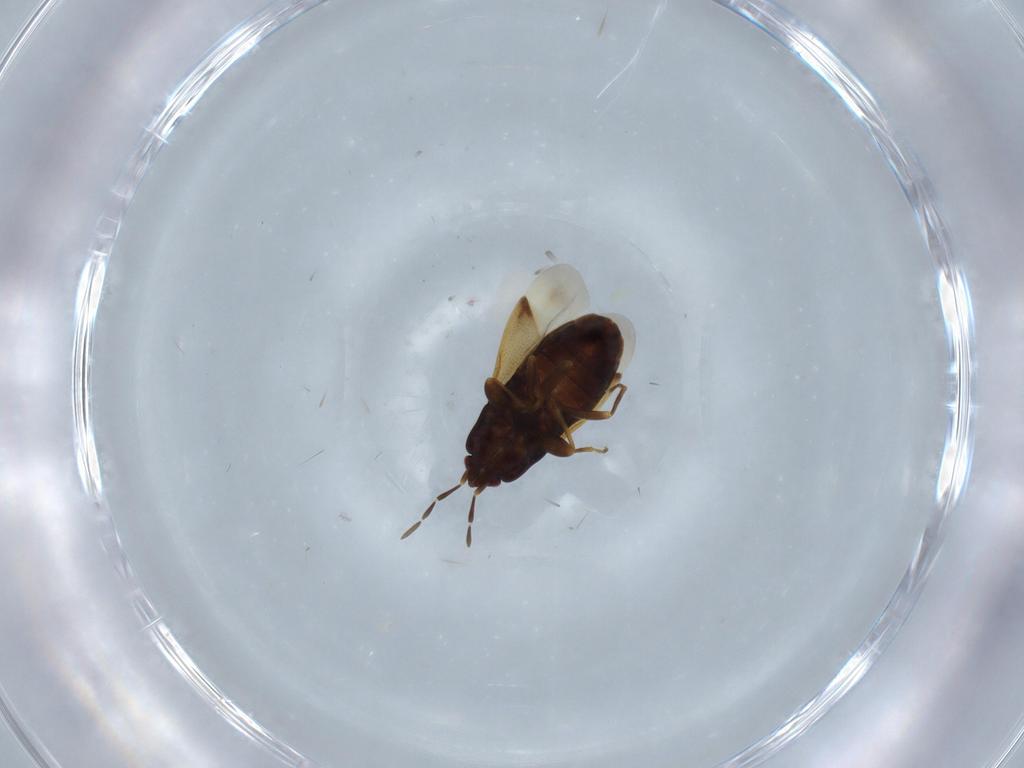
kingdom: Animalia
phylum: Arthropoda
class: Insecta
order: Hemiptera
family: Rhyparochromidae
